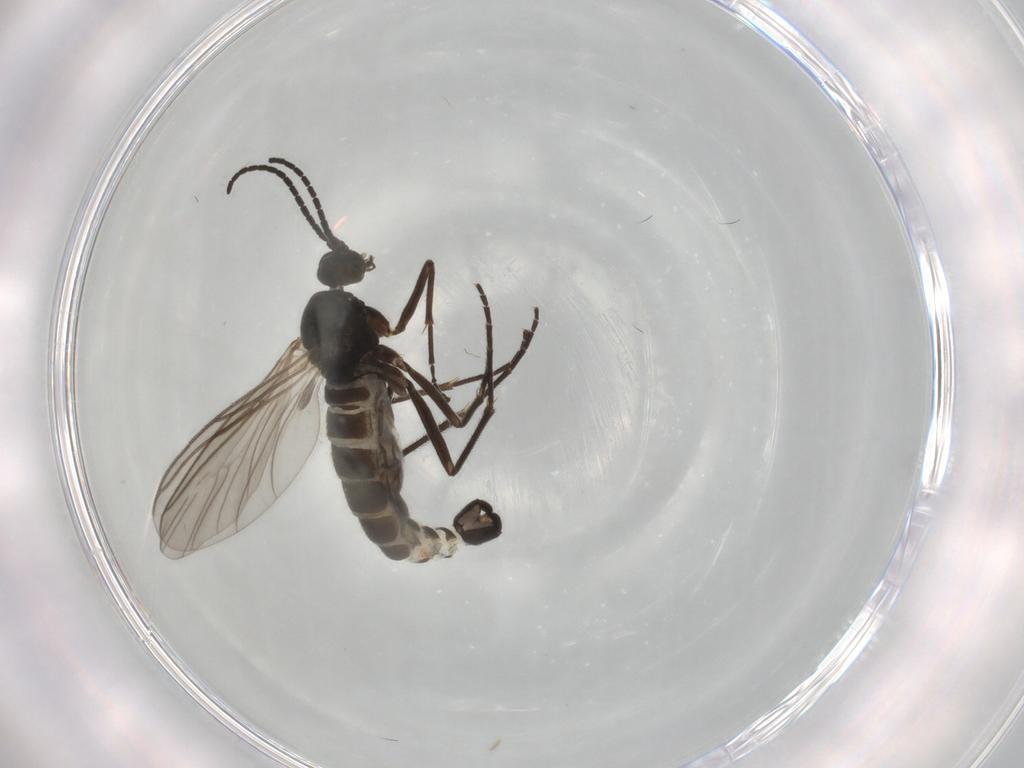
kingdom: Animalia
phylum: Arthropoda
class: Insecta
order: Diptera
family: Sciaridae
